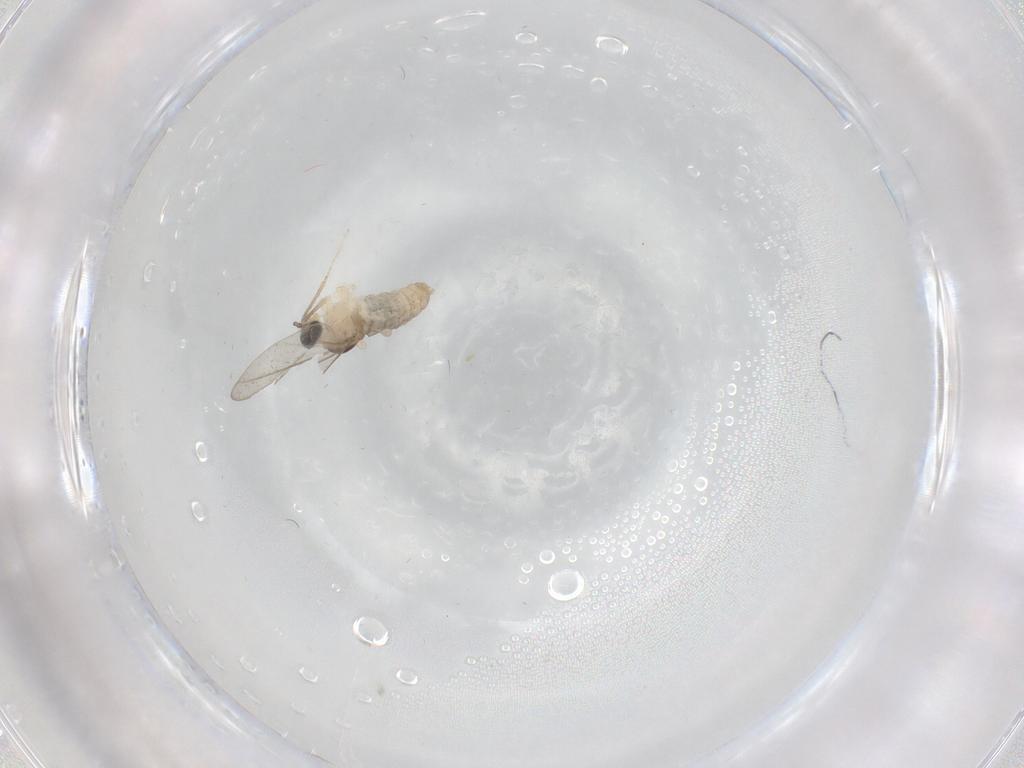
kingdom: Animalia
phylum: Arthropoda
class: Insecta
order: Diptera
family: Cecidomyiidae
